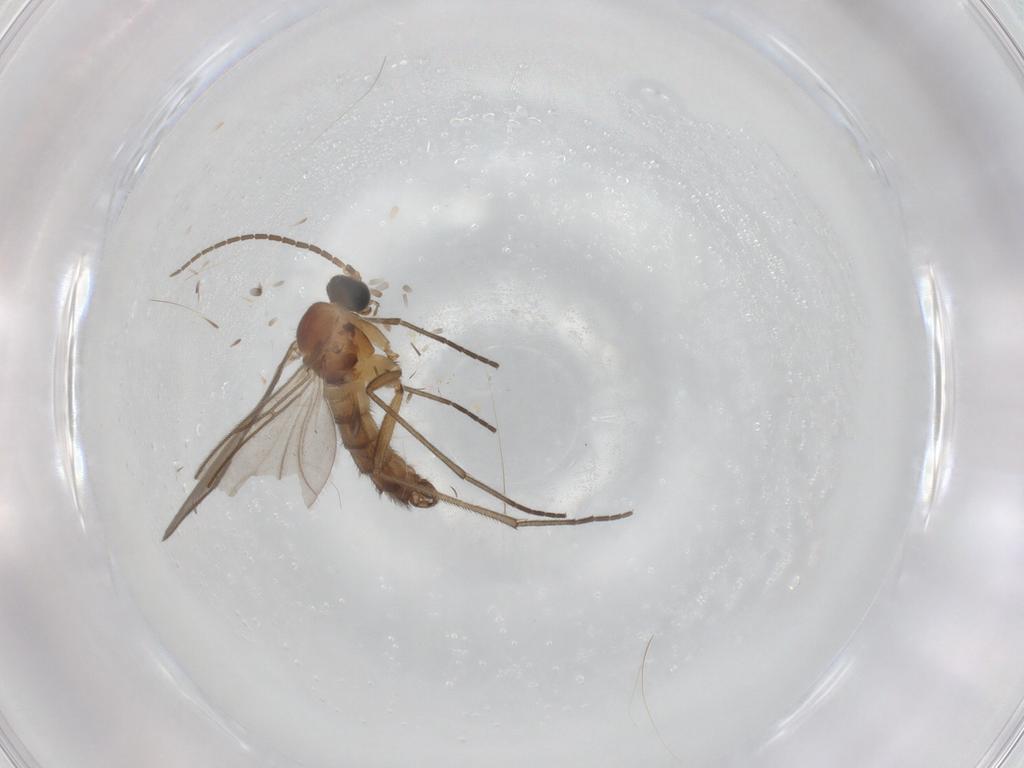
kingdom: Animalia
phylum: Arthropoda
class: Insecta
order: Diptera
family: Sciaridae
